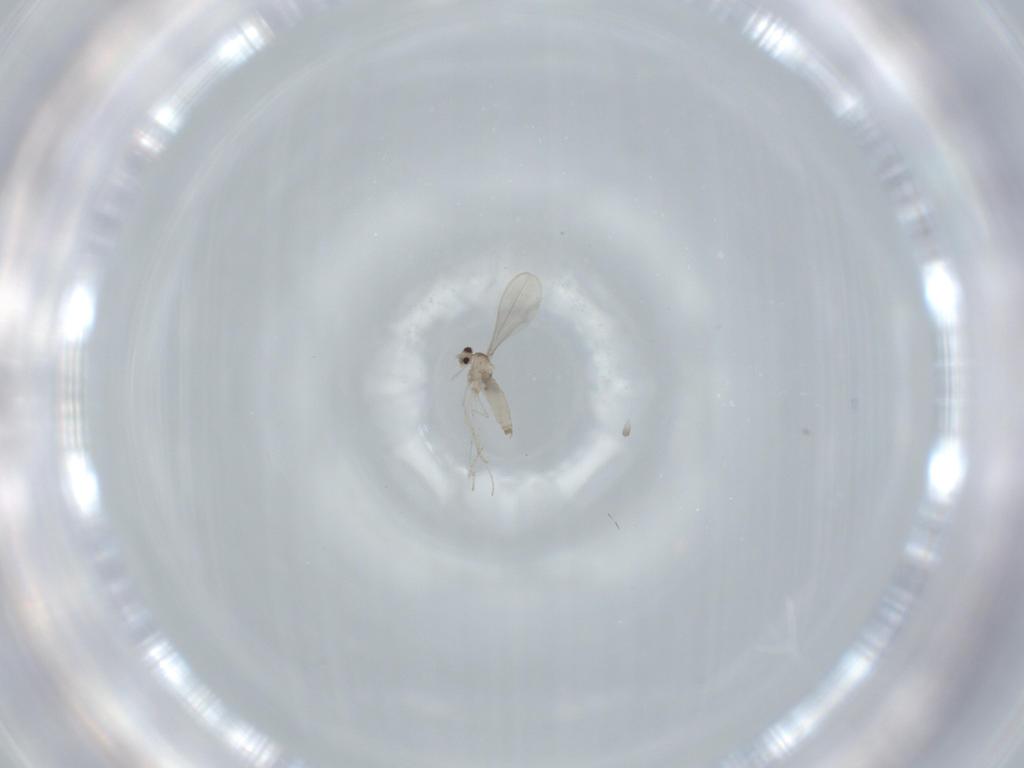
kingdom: Animalia
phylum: Arthropoda
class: Insecta
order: Diptera
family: Cecidomyiidae
